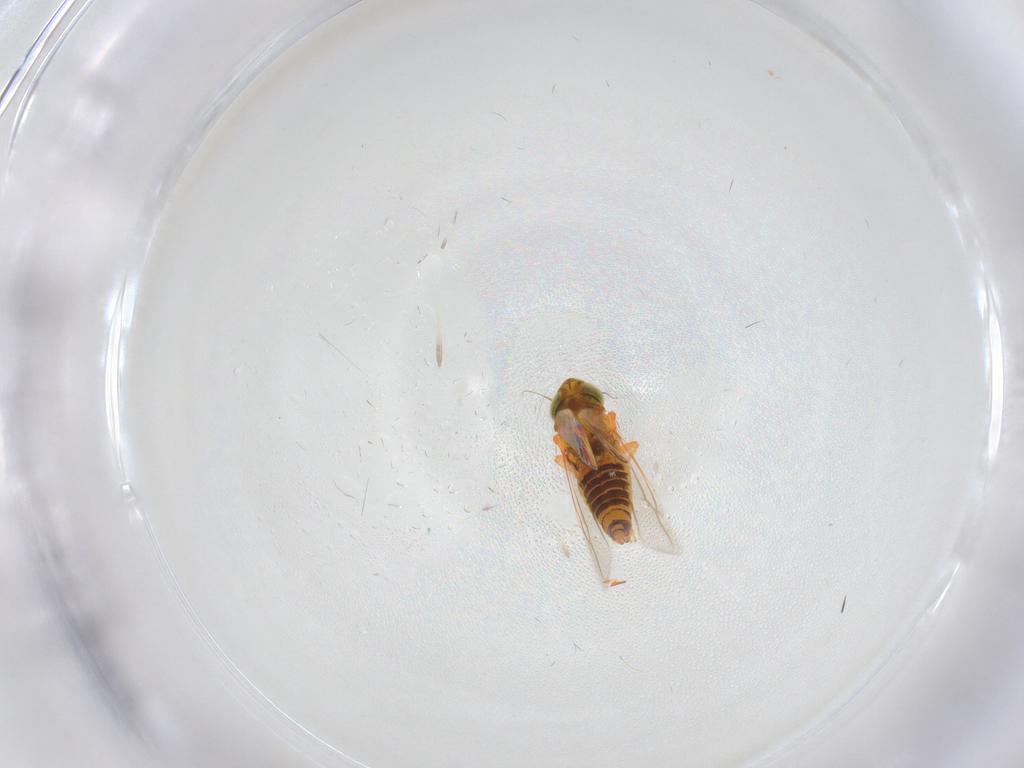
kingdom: Animalia
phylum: Arthropoda
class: Insecta
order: Hemiptera
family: Cicadellidae
